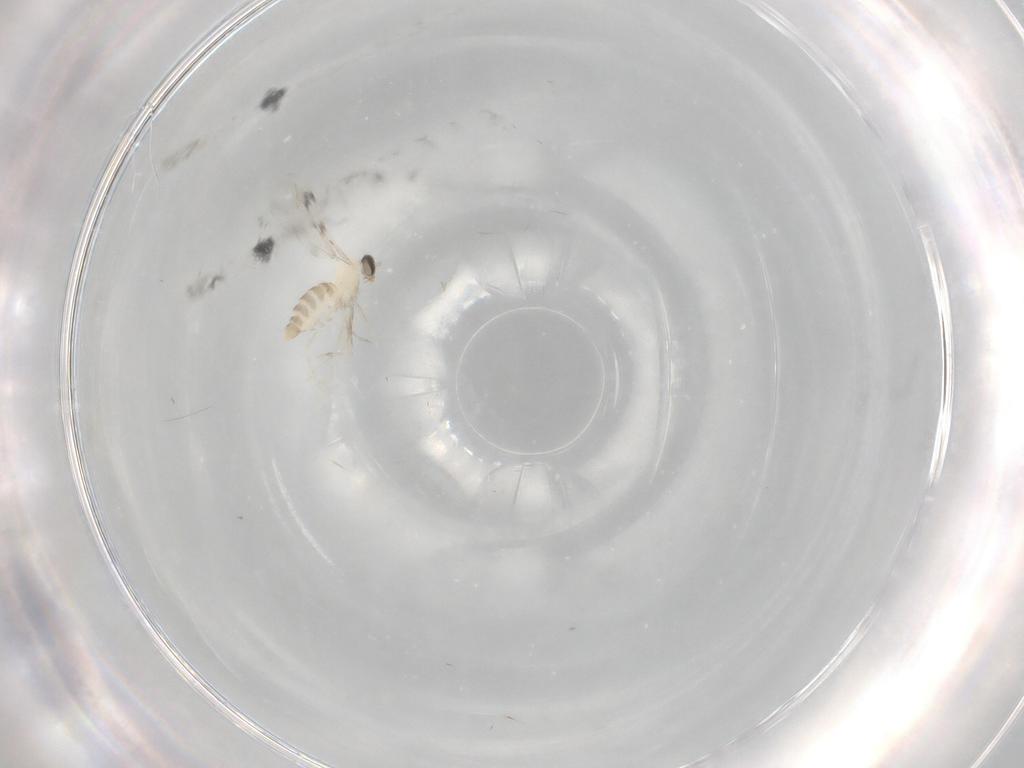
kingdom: Animalia
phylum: Arthropoda
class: Insecta
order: Diptera
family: Cecidomyiidae
